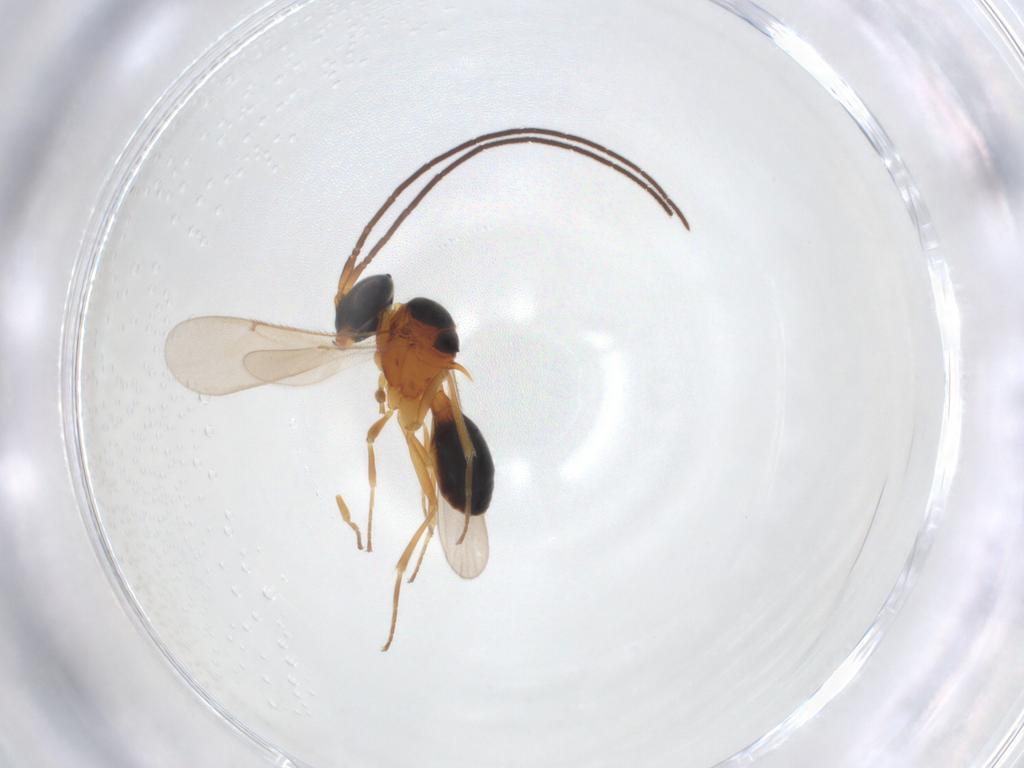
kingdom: Animalia
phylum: Arthropoda
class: Insecta
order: Hymenoptera
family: Scelionidae
